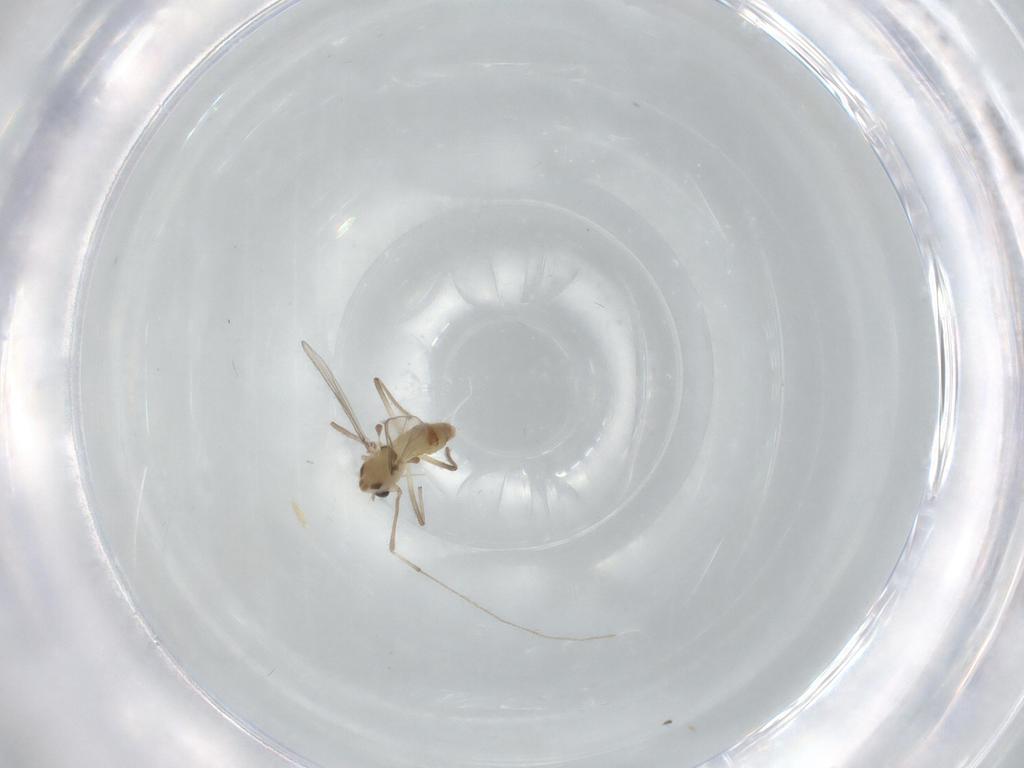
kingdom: Animalia
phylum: Arthropoda
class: Insecta
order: Diptera
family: Chironomidae
